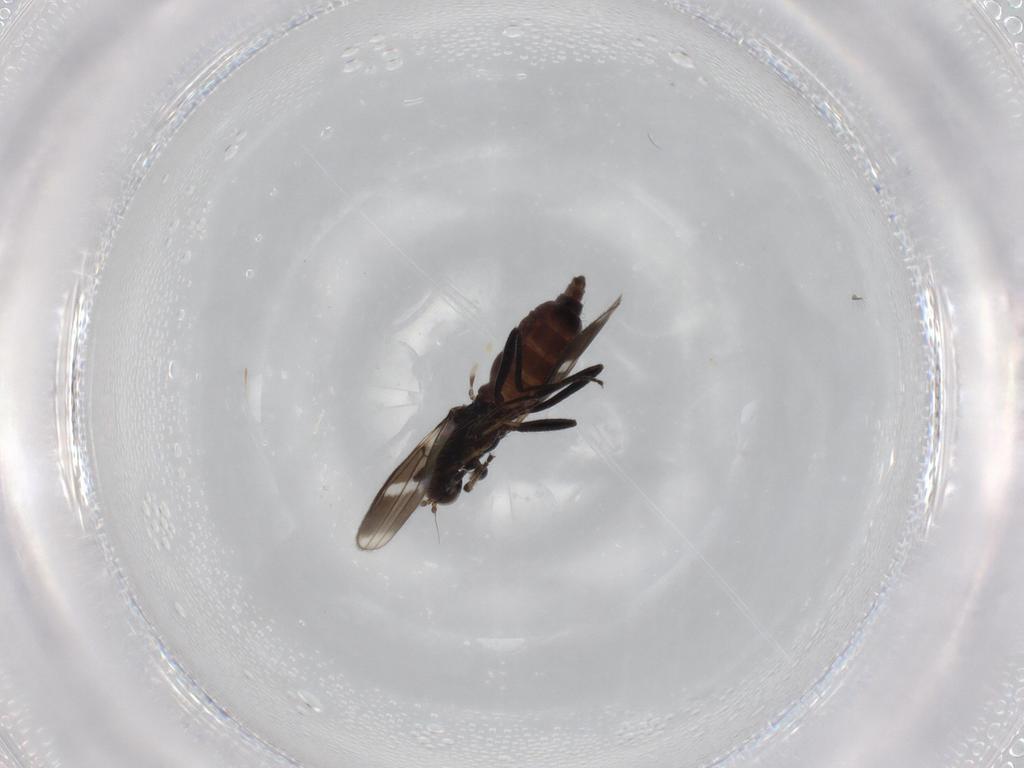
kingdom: Animalia
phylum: Arthropoda
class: Insecta
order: Diptera
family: Hybotidae
